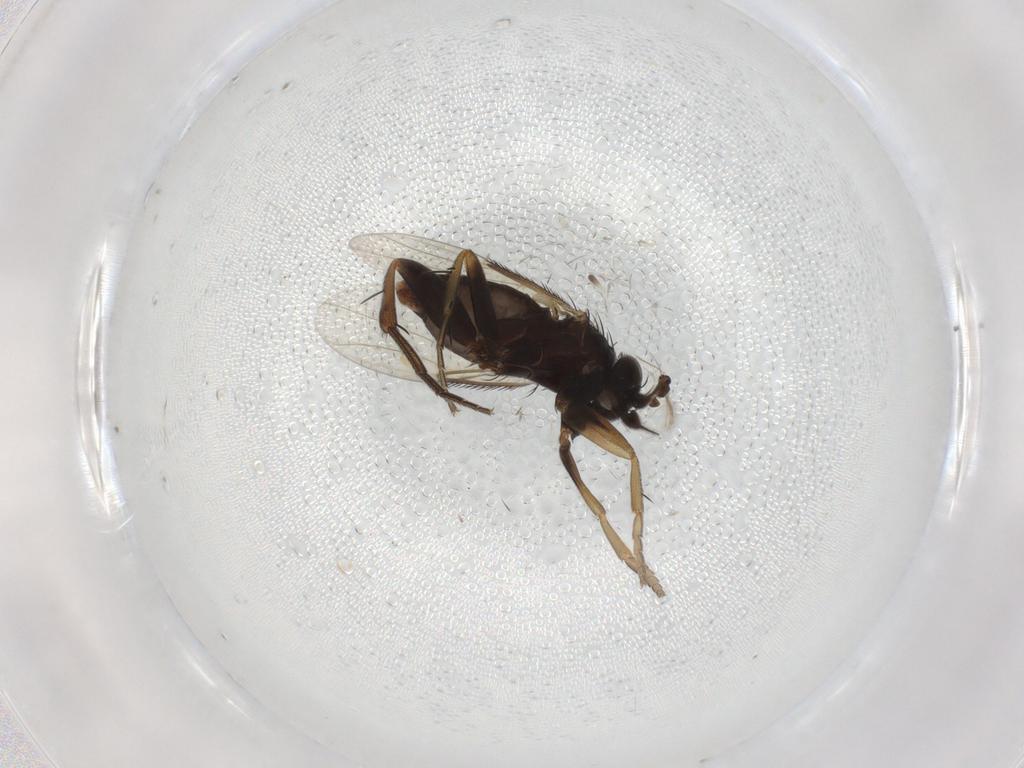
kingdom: Animalia
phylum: Arthropoda
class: Insecta
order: Diptera
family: Phoridae
